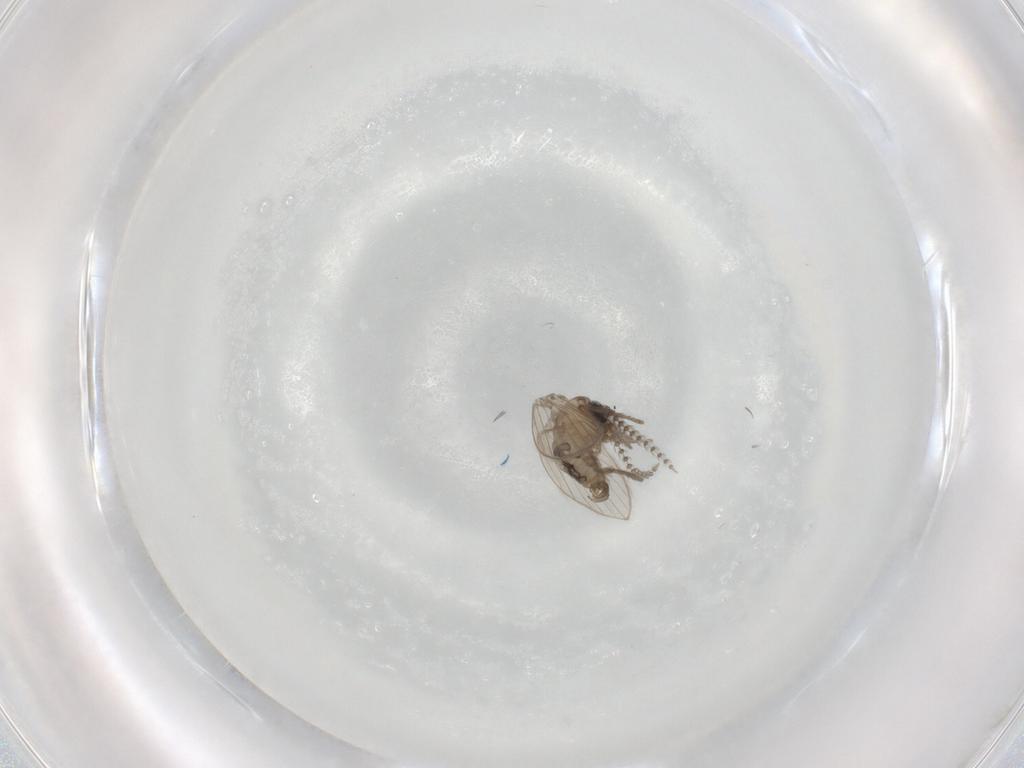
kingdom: Animalia
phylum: Arthropoda
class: Insecta
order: Diptera
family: Psychodidae
